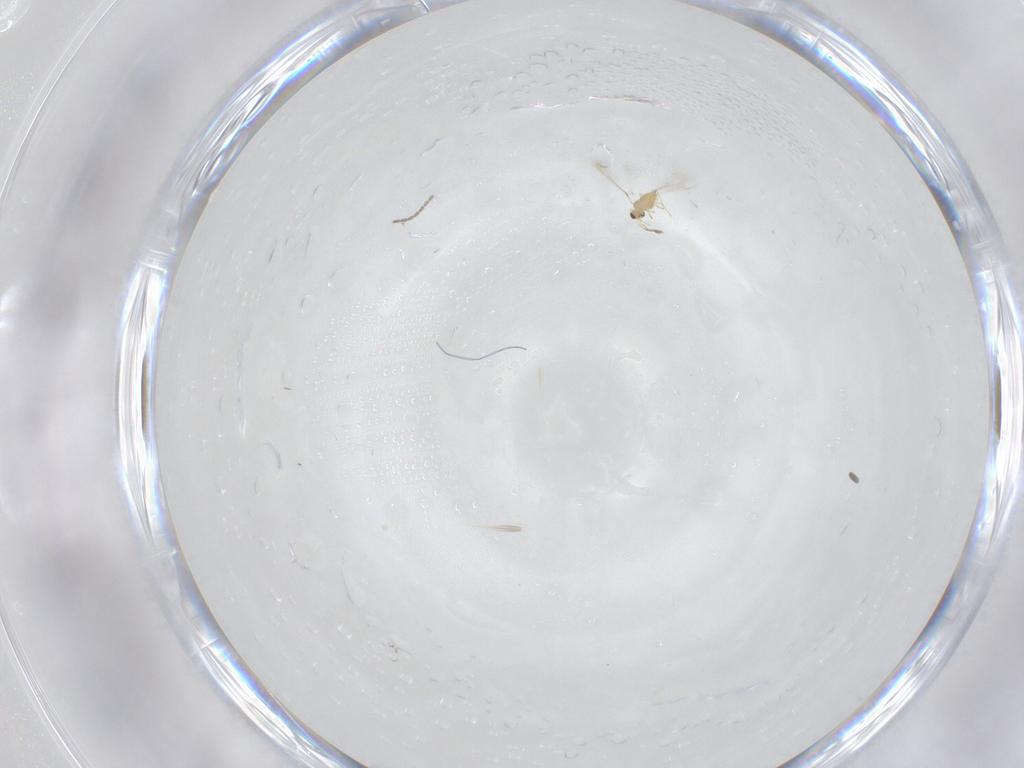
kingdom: Animalia
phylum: Arthropoda
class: Insecta
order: Diptera
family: Cecidomyiidae
